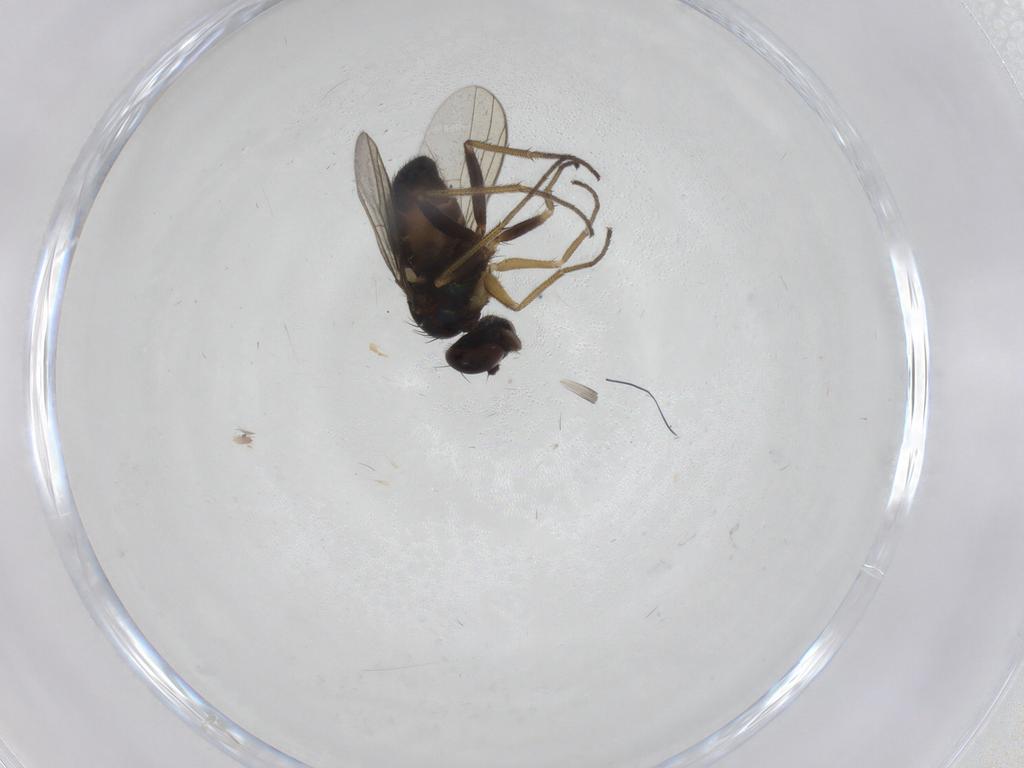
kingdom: Animalia
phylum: Arthropoda
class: Insecta
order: Diptera
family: Dolichopodidae
